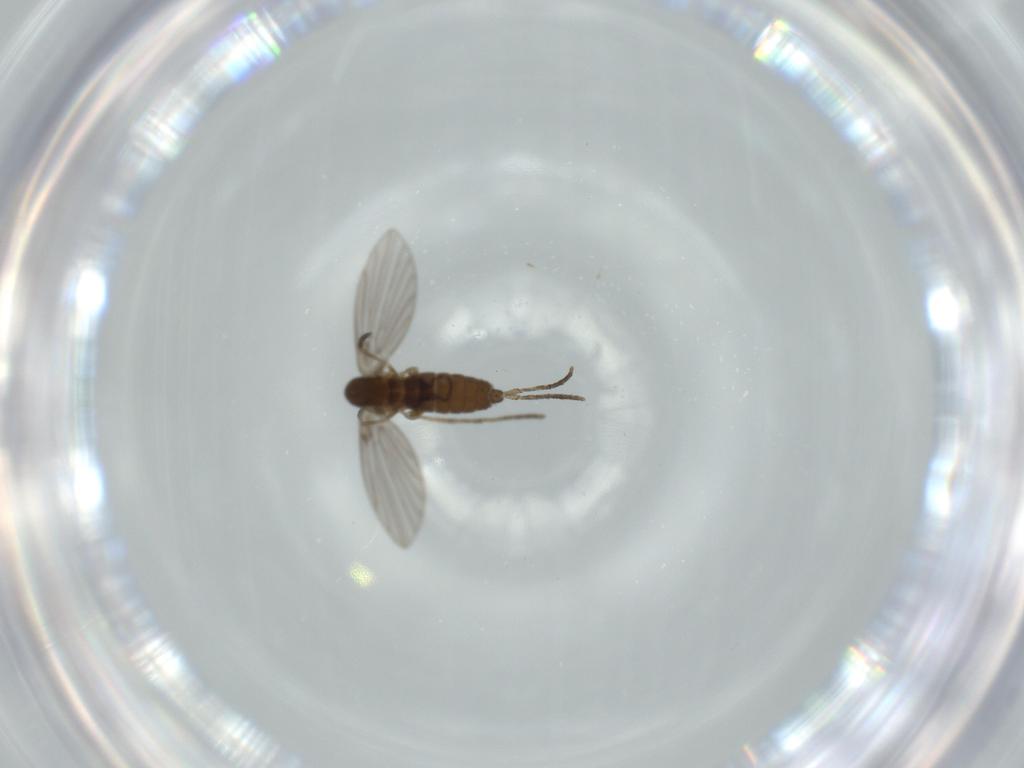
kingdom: Animalia
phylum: Arthropoda
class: Insecta
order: Diptera
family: Psychodidae
